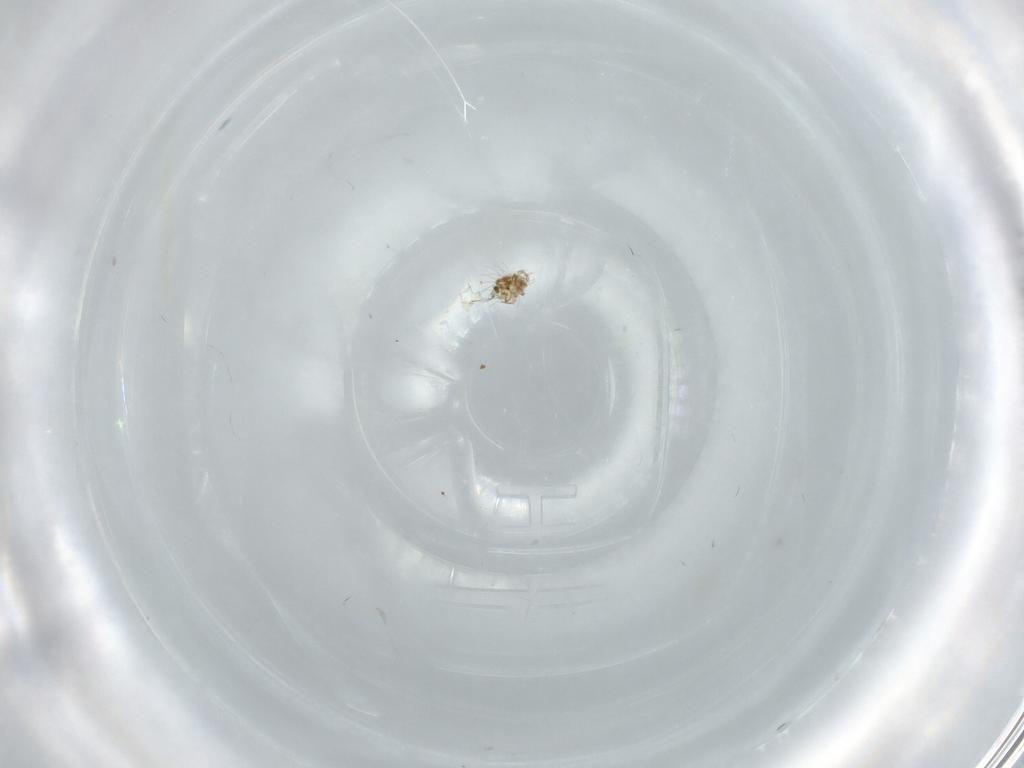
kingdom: Animalia
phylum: Arthropoda
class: Arachnida
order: Sarcoptiformes
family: Mochlozetidae
